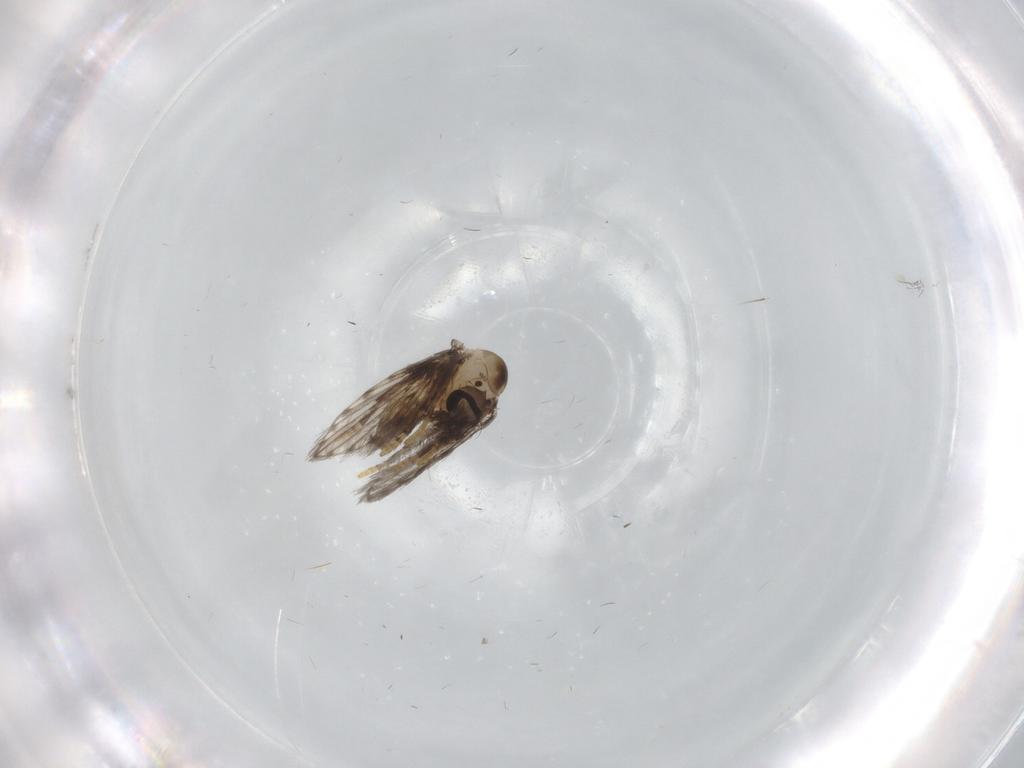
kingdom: Animalia
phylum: Arthropoda
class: Insecta
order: Diptera
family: Psychodidae
